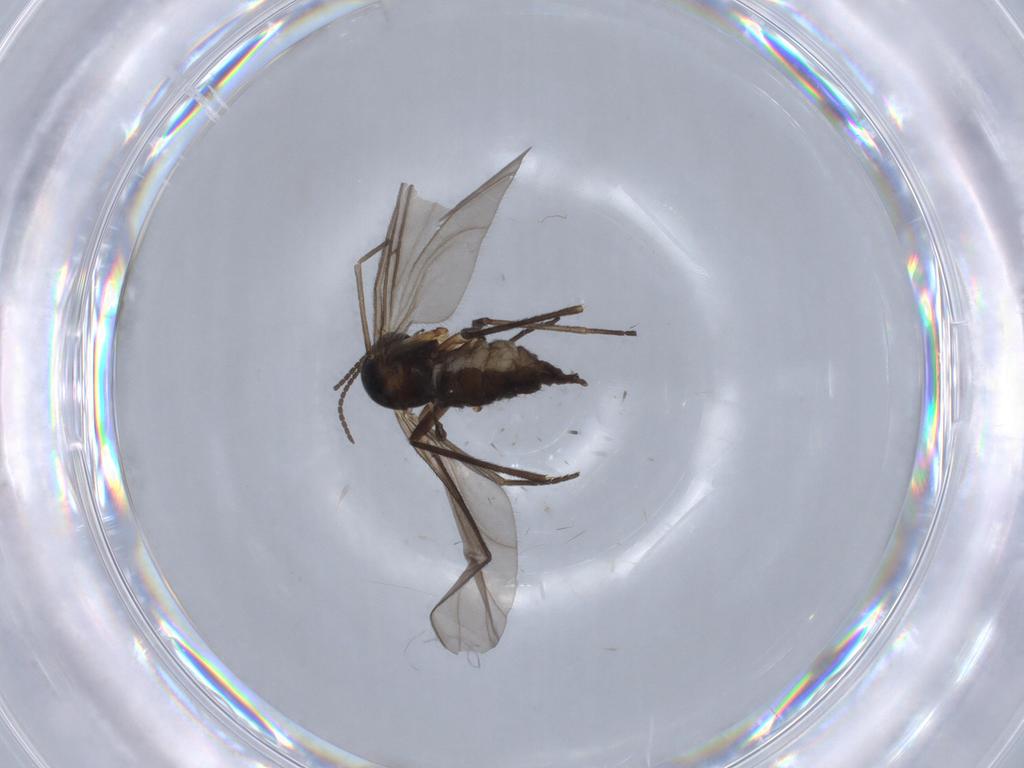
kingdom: Animalia
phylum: Arthropoda
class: Insecta
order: Diptera
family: Sciaridae
